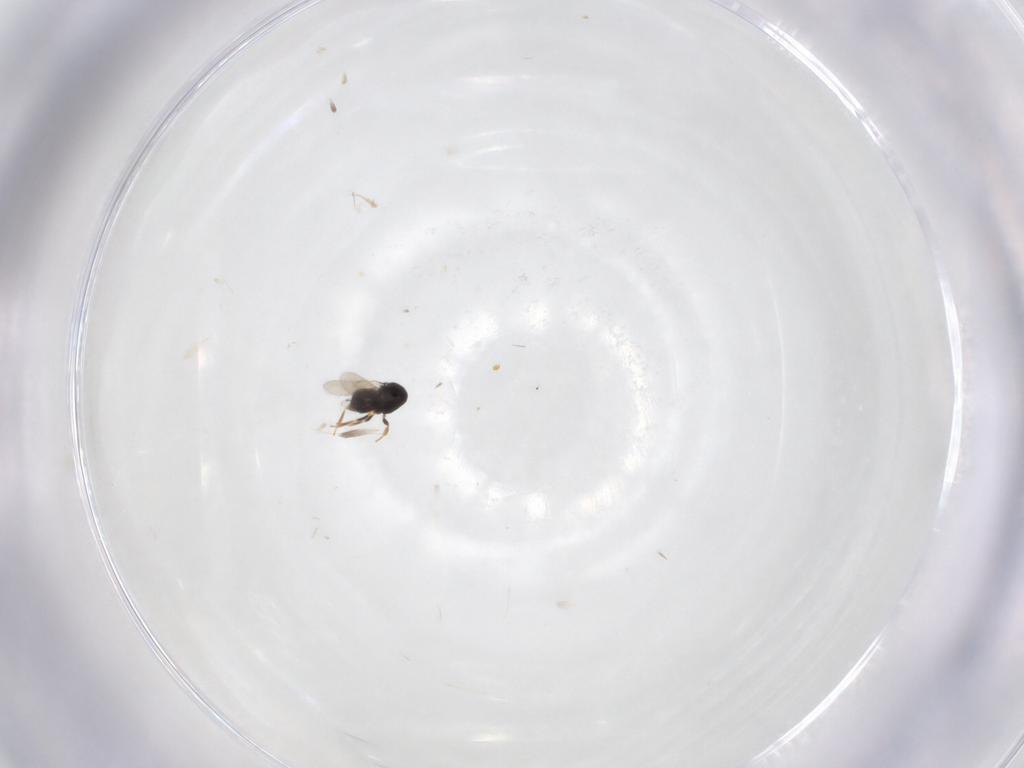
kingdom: Animalia
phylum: Arthropoda
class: Insecta
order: Hymenoptera
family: Scelionidae
